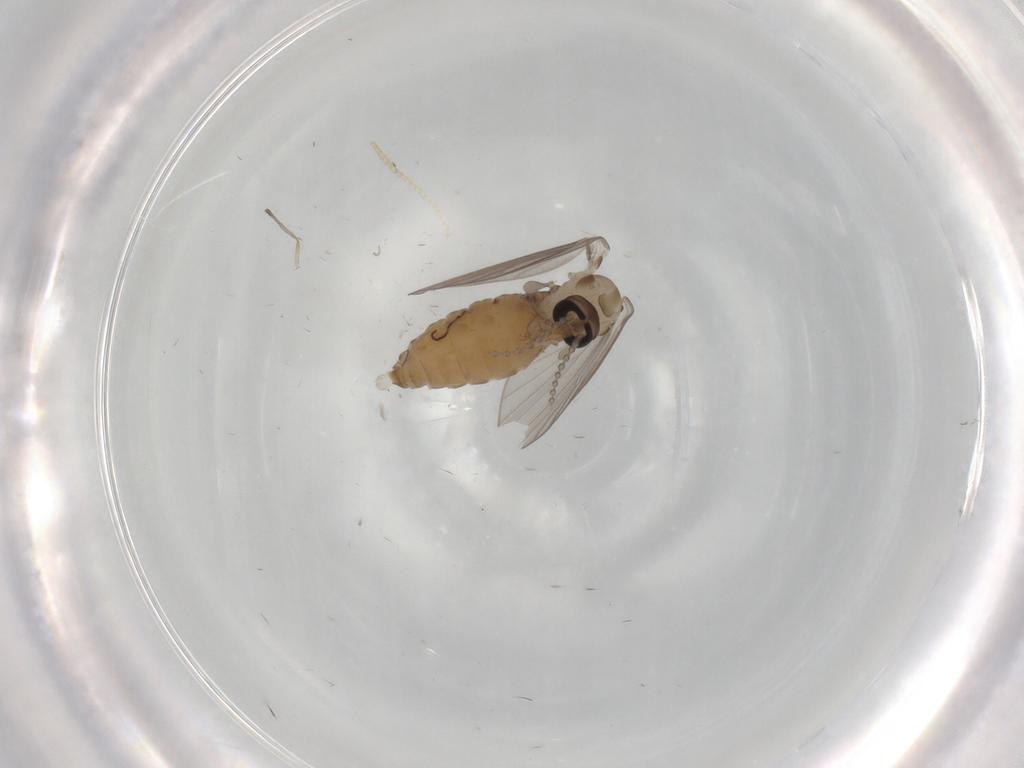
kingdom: Animalia
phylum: Arthropoda
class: Insecta
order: Diptera
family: Psychodidae
